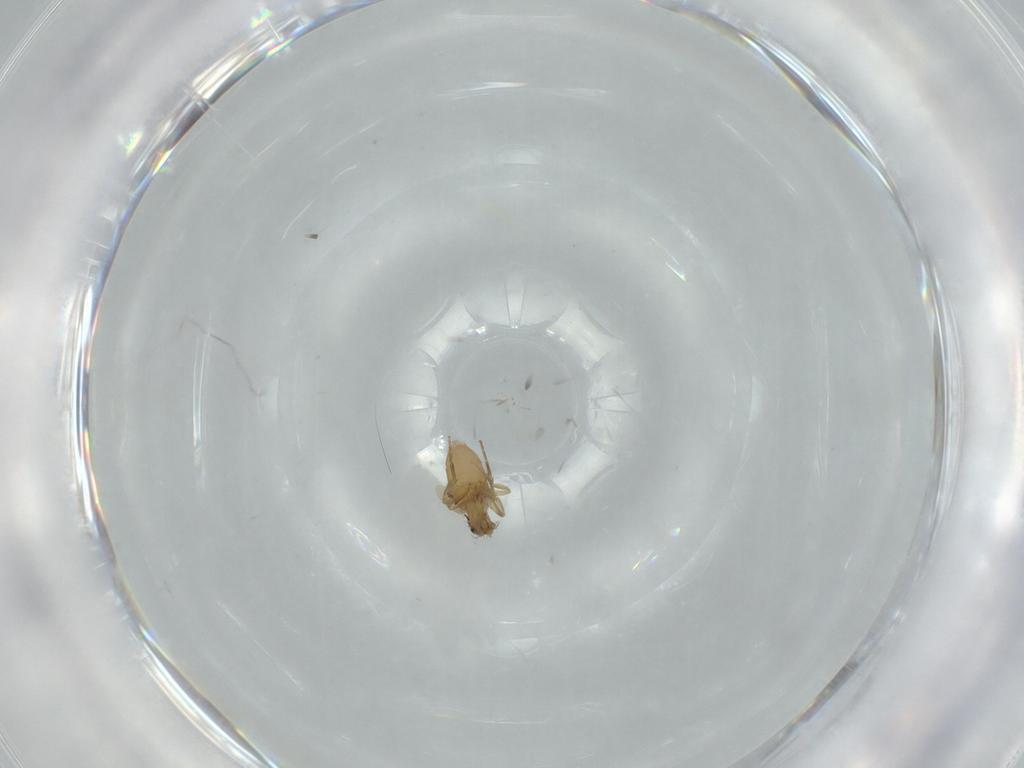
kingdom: Animalia
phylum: Arthropoda
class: Insecta
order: Diptera
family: Phoridae
